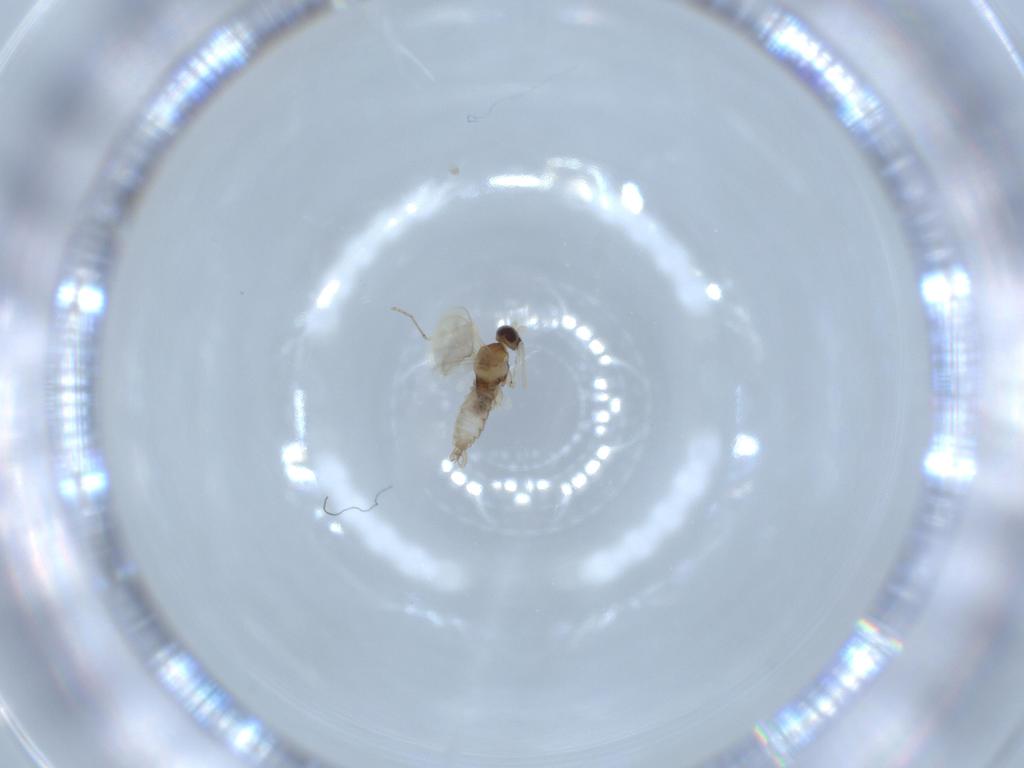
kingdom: Animalia
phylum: Arthropoda
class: Insecta
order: Diptera
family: Cecidomyiidae
